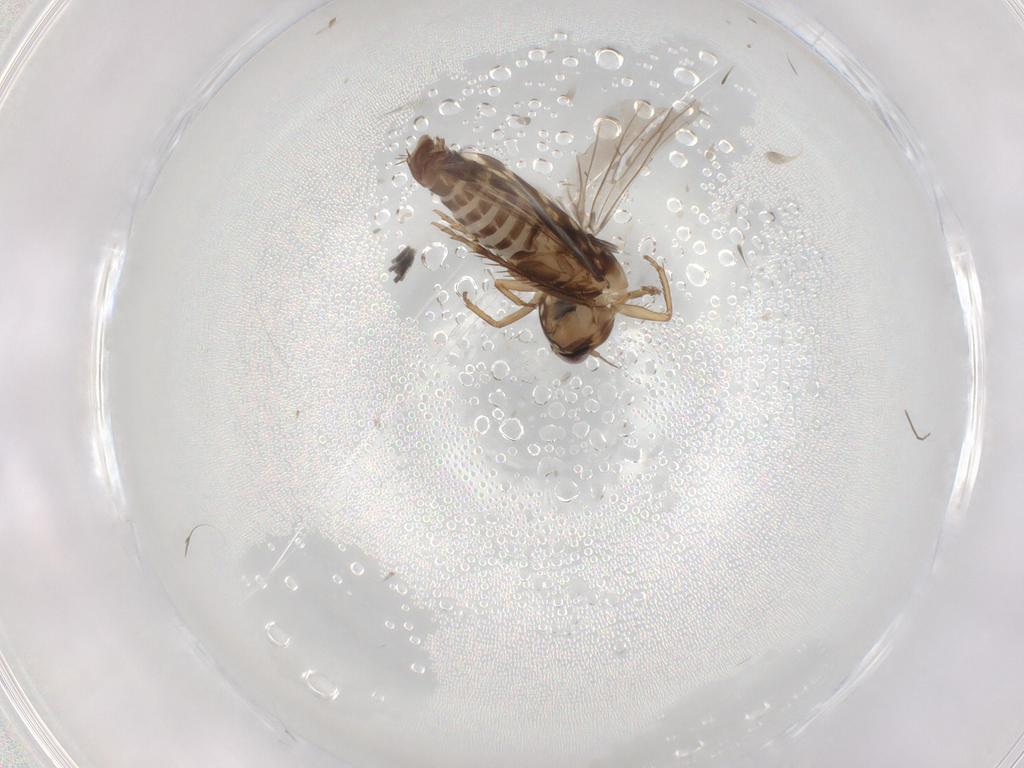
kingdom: Animalia
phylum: Arthropoda
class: Insecta
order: Hemiptera
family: Cicadellidae
